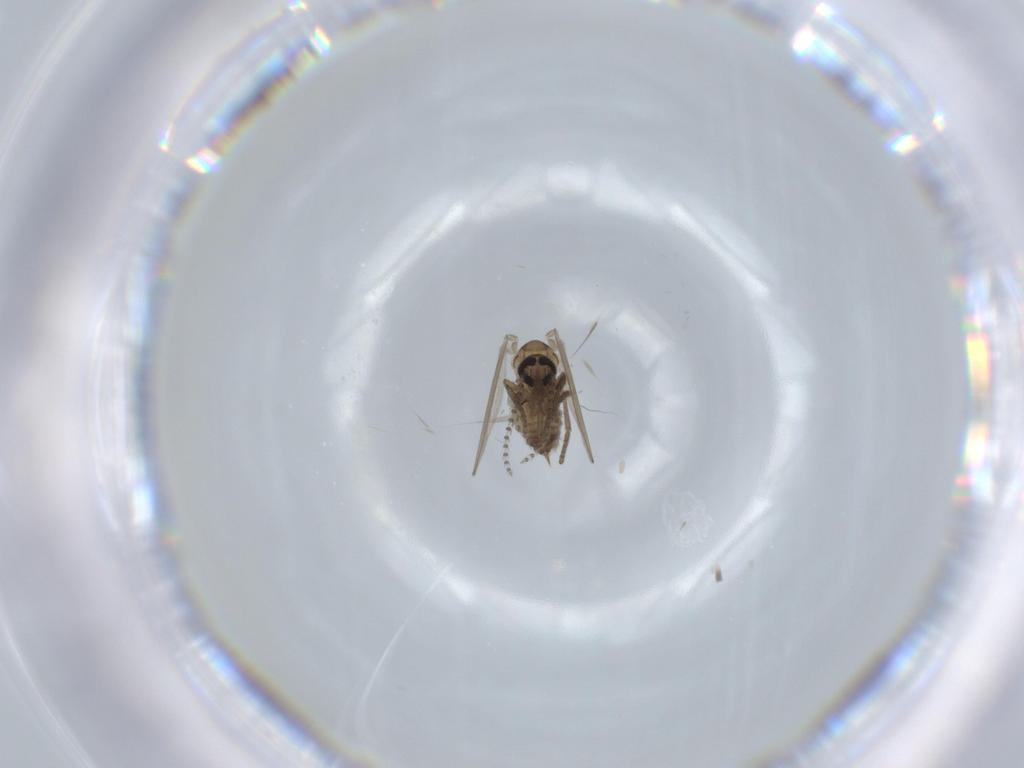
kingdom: Animalia
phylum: Arthropoda
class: Insecta
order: Diptera
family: Psychodidae
